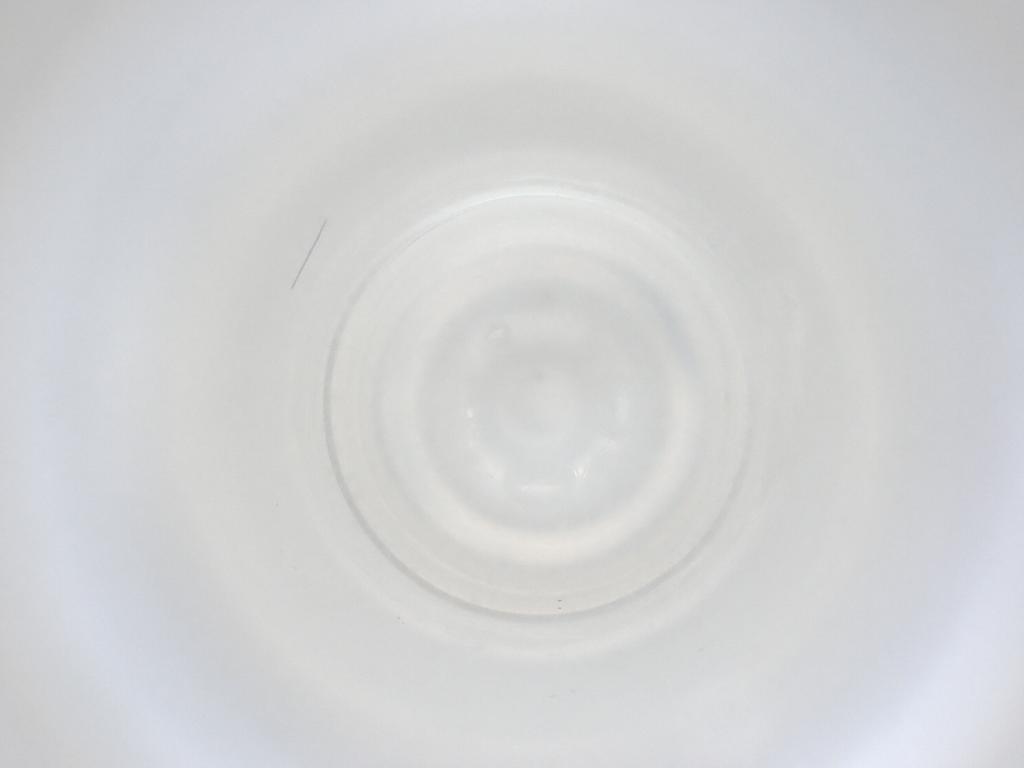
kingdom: Animalia
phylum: Arthropoda
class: Insecta
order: Diptera
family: Cecidomyiidae
